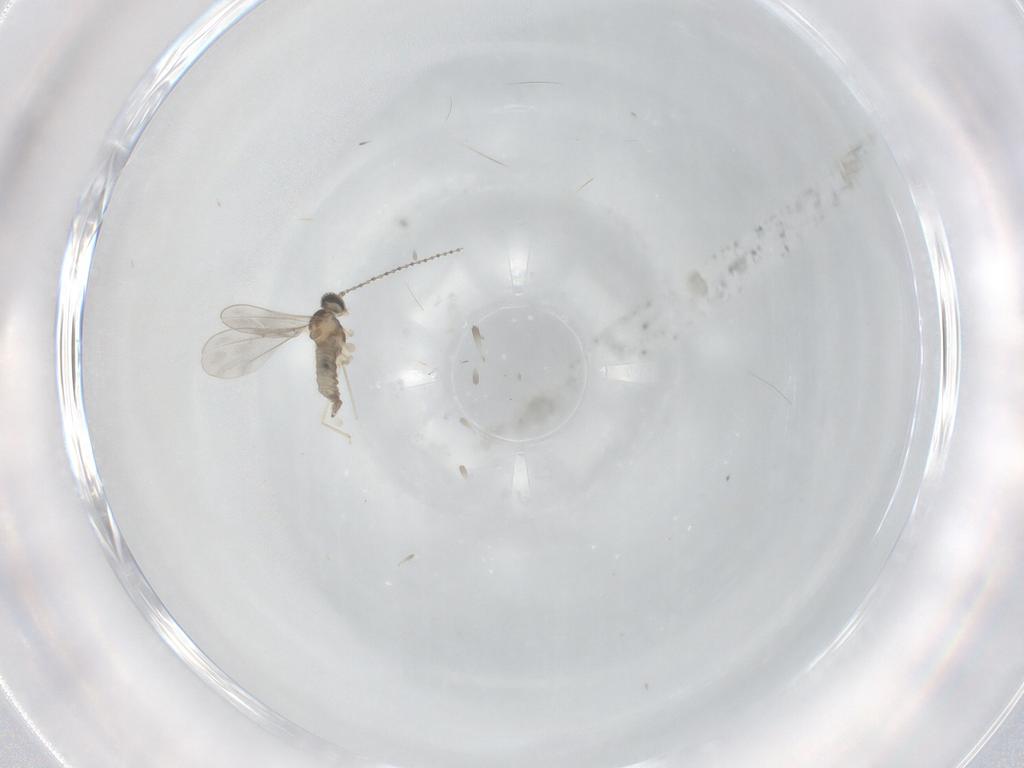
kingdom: Animalia
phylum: Arthropoda
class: Insecta
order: Diptera
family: Cecidomyiidae
